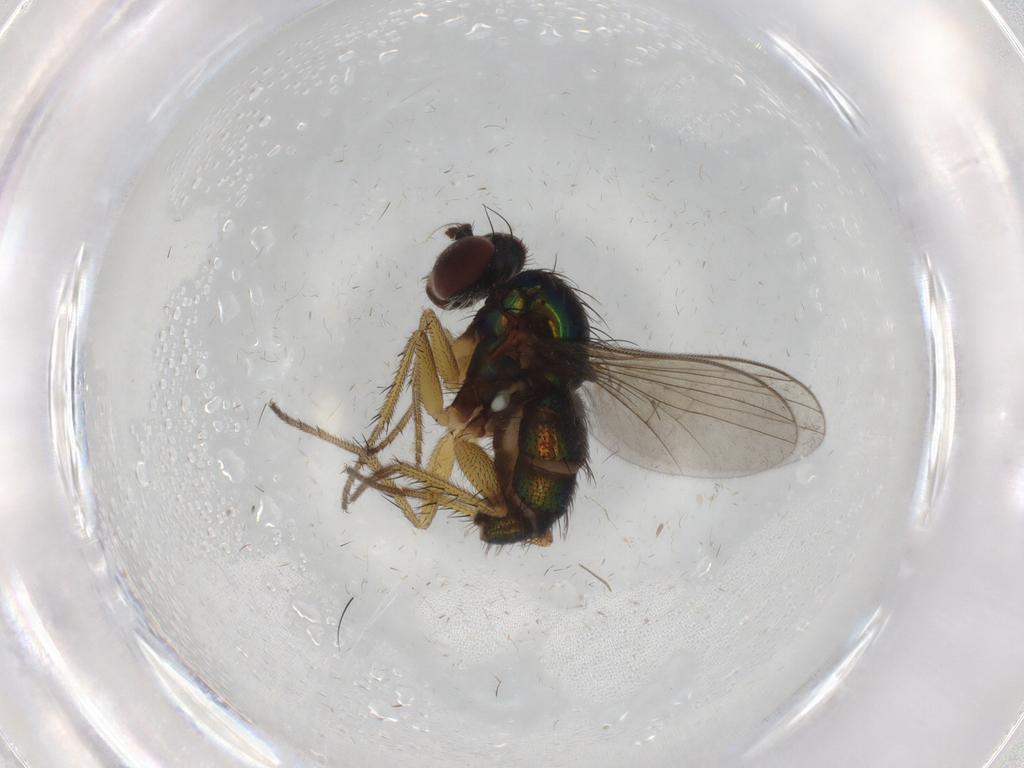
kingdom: Animalia
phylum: Arthropoda
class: Insecta
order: Diptera
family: Dolichopodidae
